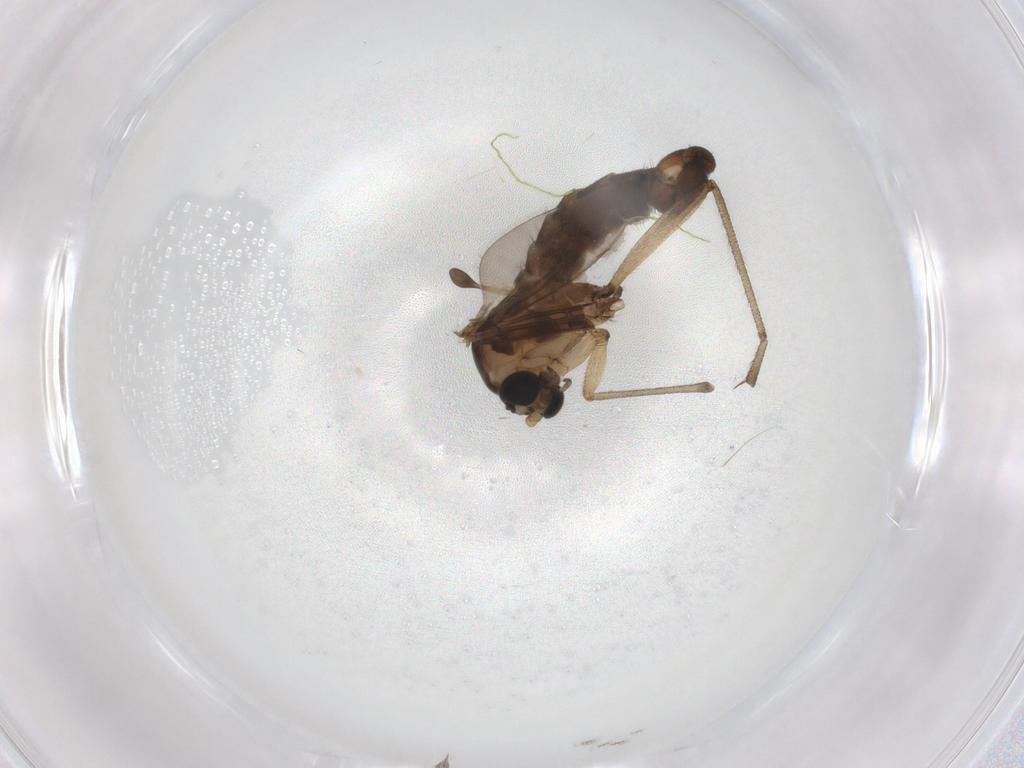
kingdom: Animalia
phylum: Arthropoda
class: Insecta
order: Diptera
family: Sciaridae
